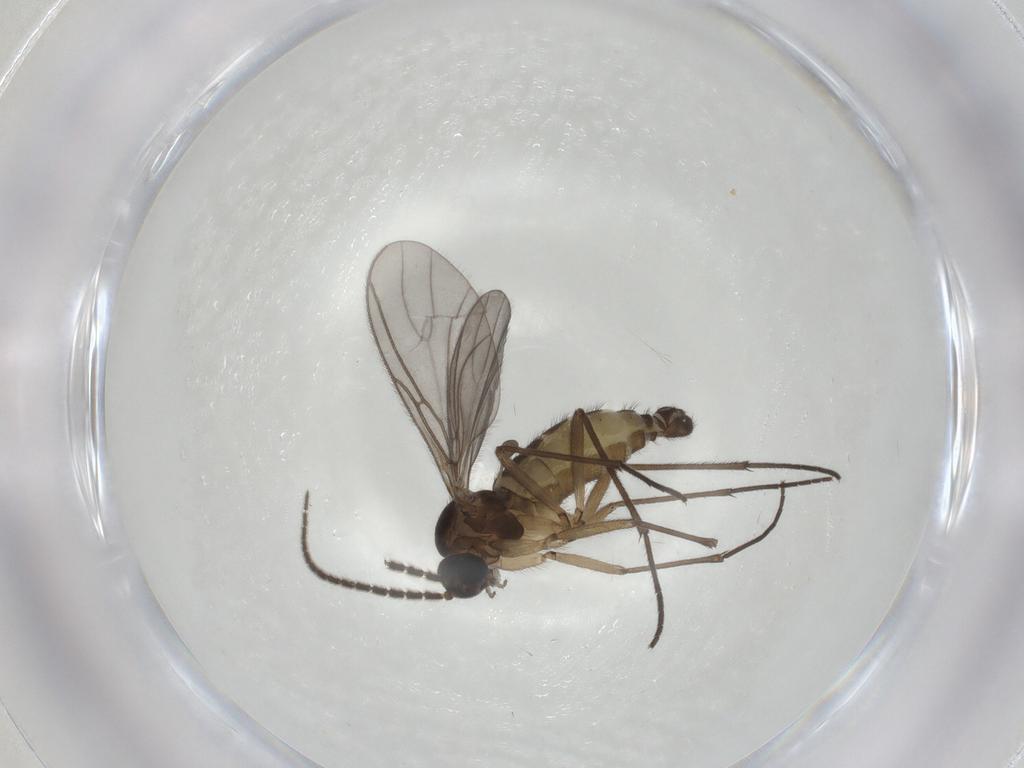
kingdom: Animalia
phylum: Arthropoda
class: Insecta
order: Diptera
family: Sciaridae
